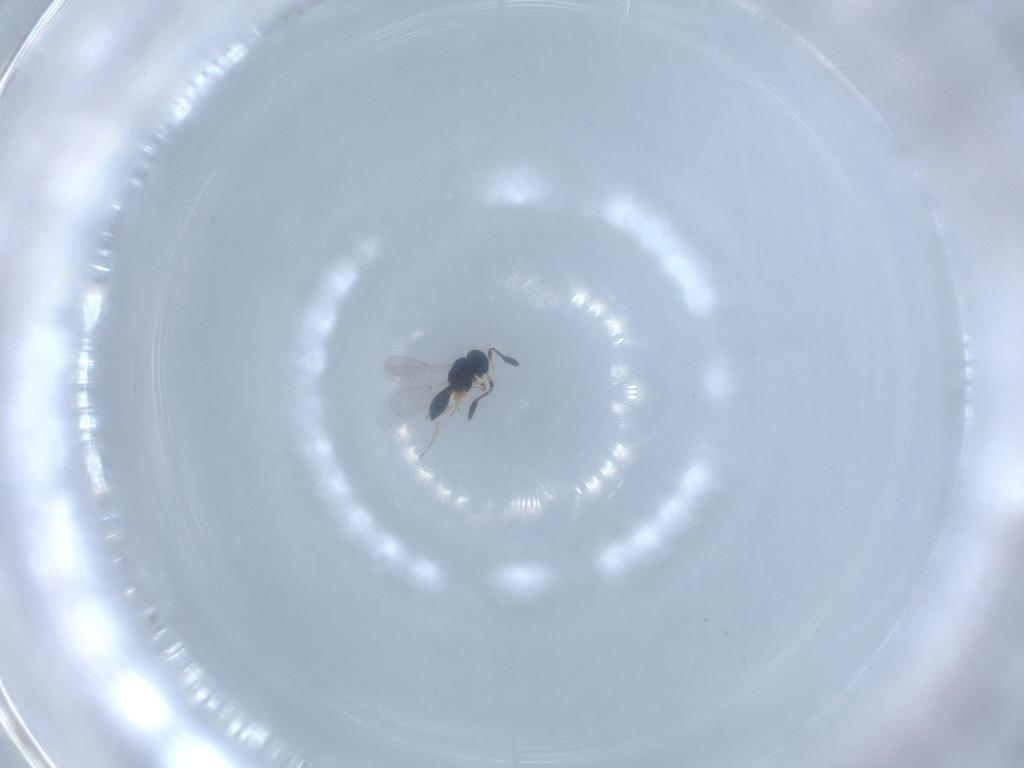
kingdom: Animalia
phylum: Arthropoda
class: Insecta
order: Hymenoptera
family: Scelionidae
